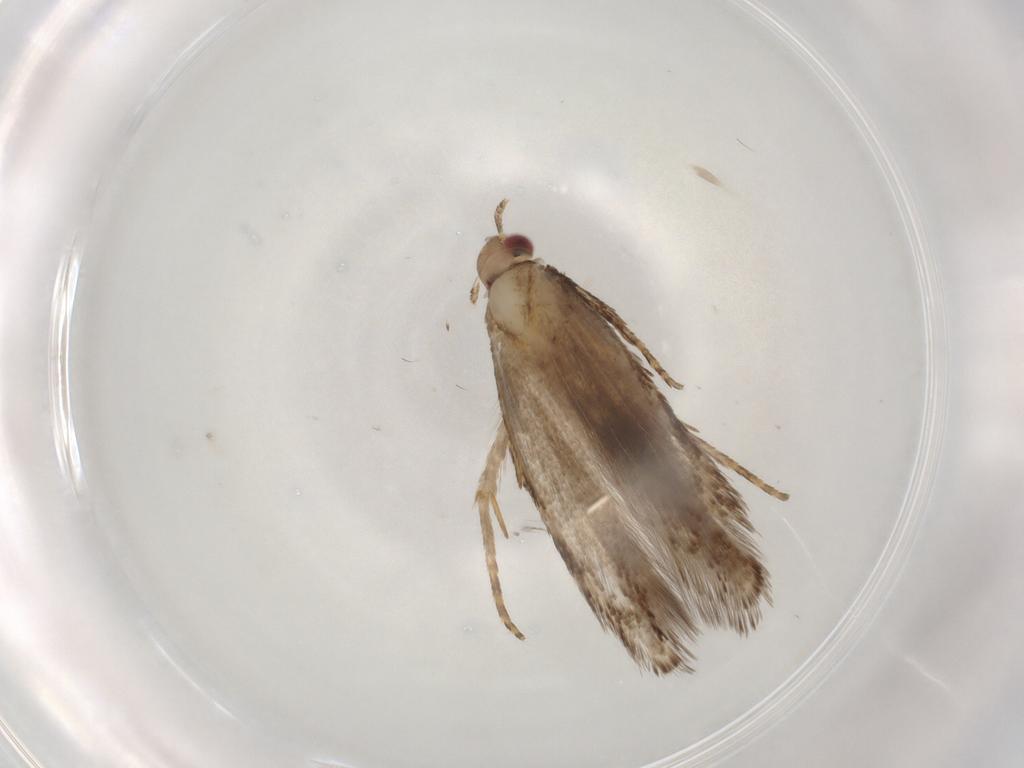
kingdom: Animalia
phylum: Arthropoda
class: Insecta
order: Lepidoptera
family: Gelechiidae
